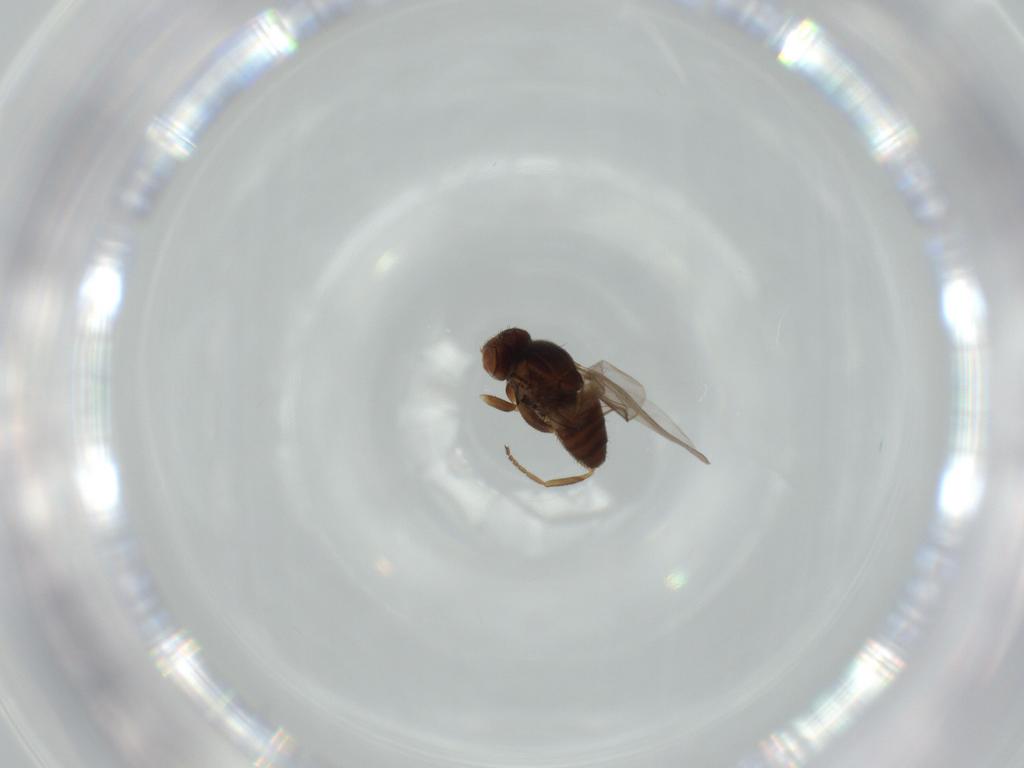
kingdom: Animalia
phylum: Arthropoda
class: Insecta
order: Diptera
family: Chloropidae
